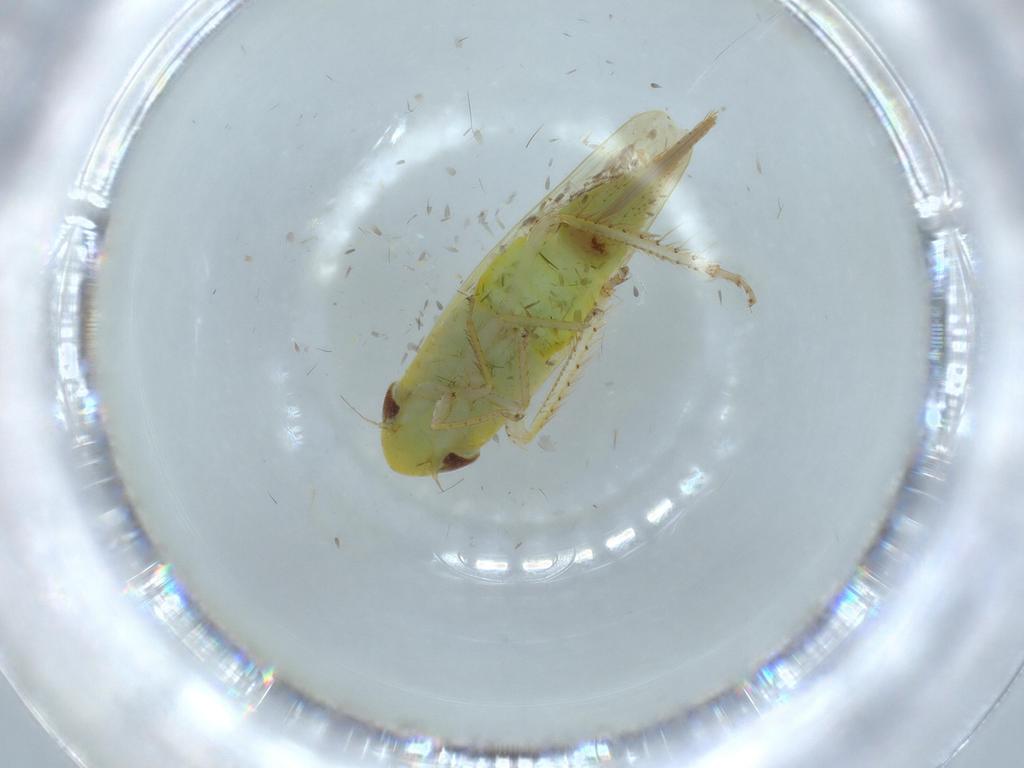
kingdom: Animalia
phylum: Arthropoda
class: Insecta
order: Hemiptera
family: Cicadellidae
